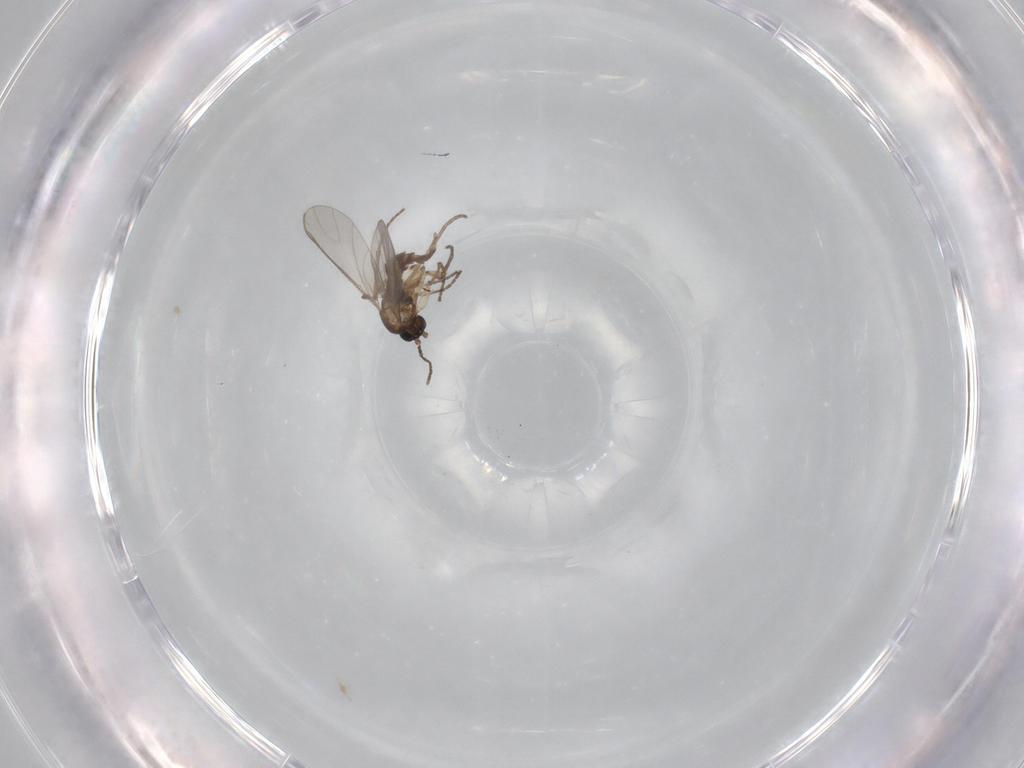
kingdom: Animalia
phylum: Arthropoda
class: Insecta
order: Diptera
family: Sciaridae
